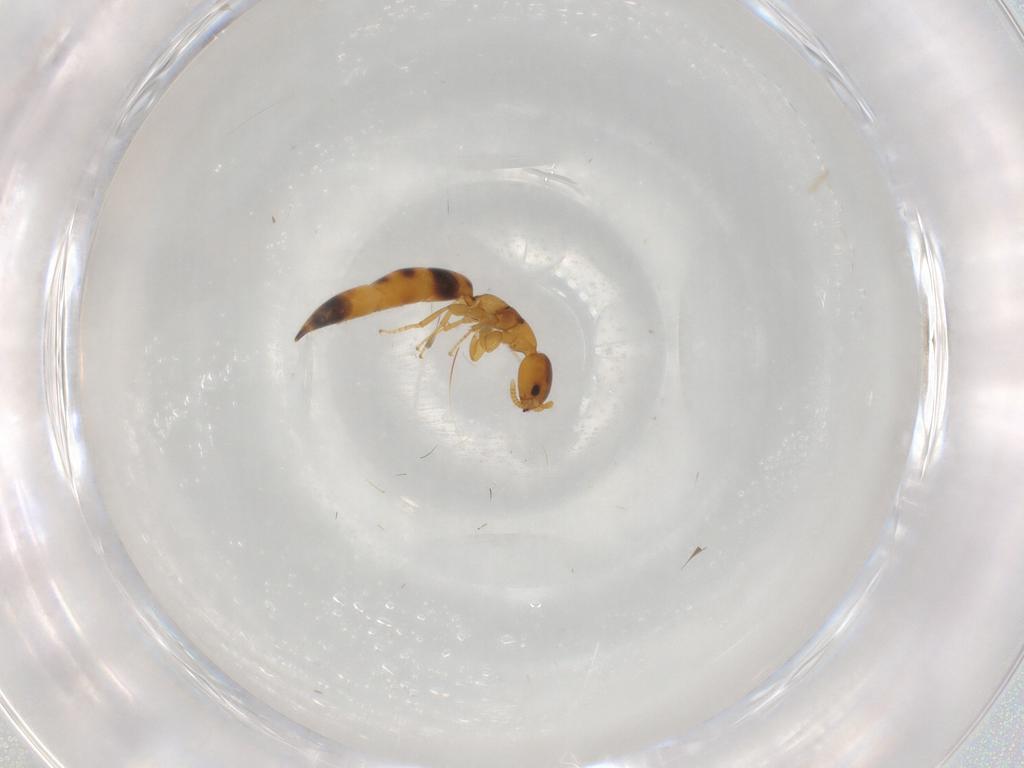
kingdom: Animalia
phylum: Arthropoda
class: Insecta
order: Hymenoptera
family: Bethylidae
